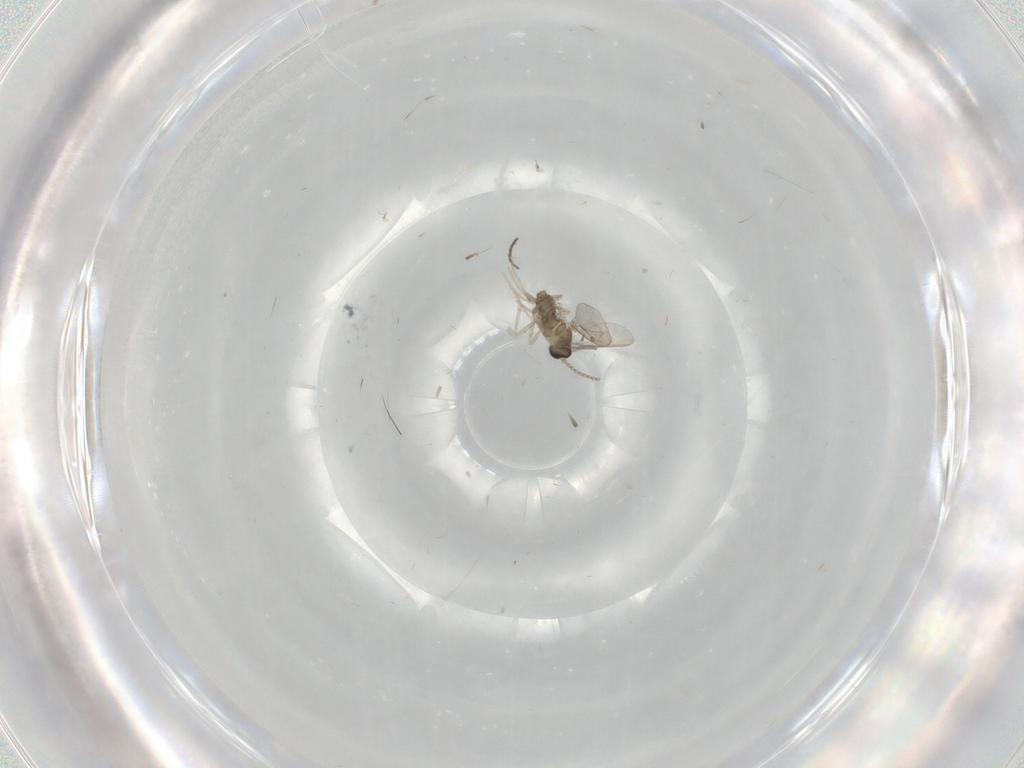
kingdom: Animalia
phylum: Arthropoda
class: Insecta
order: Diptera
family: Cecidomyiidae
